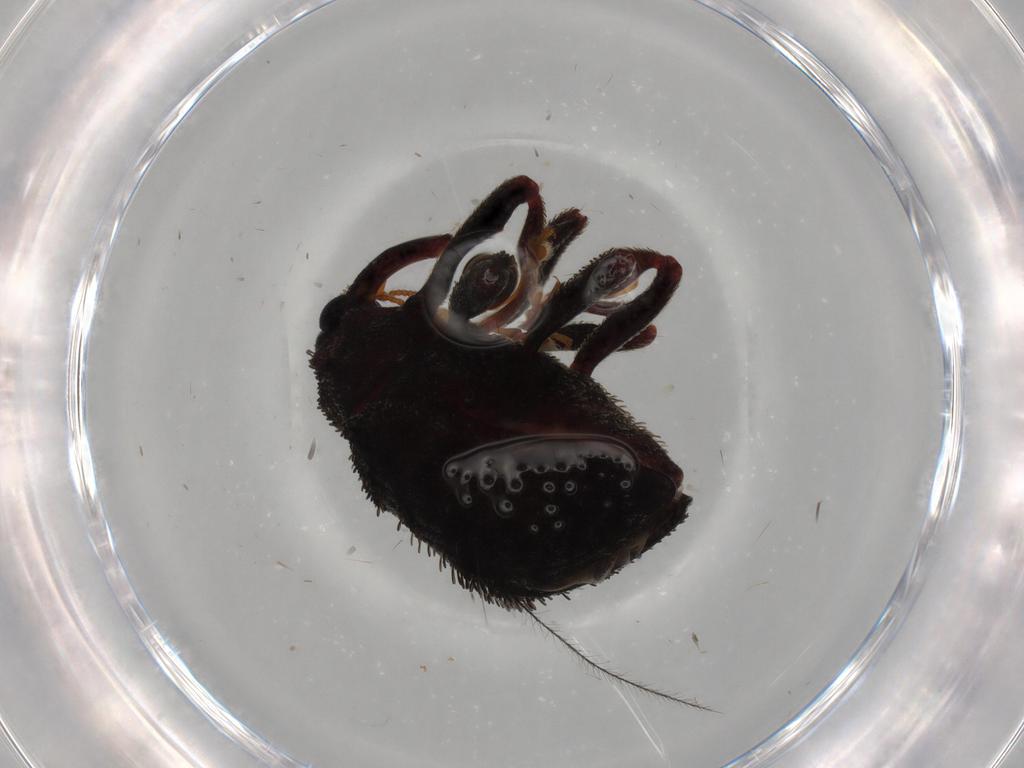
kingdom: Animalia
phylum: Arthropoda
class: Insecta
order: Coleoptera
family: Curculionidae
